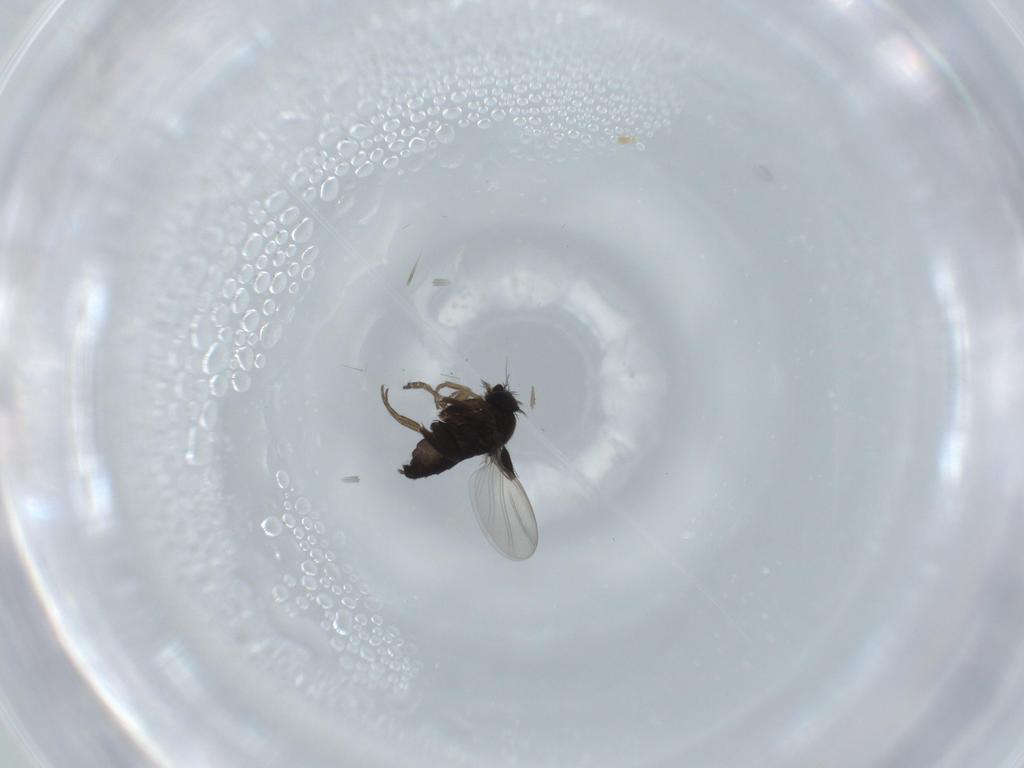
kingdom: Animalia
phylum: Arthropoda
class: Insecta
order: Diptera
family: Phoridae
